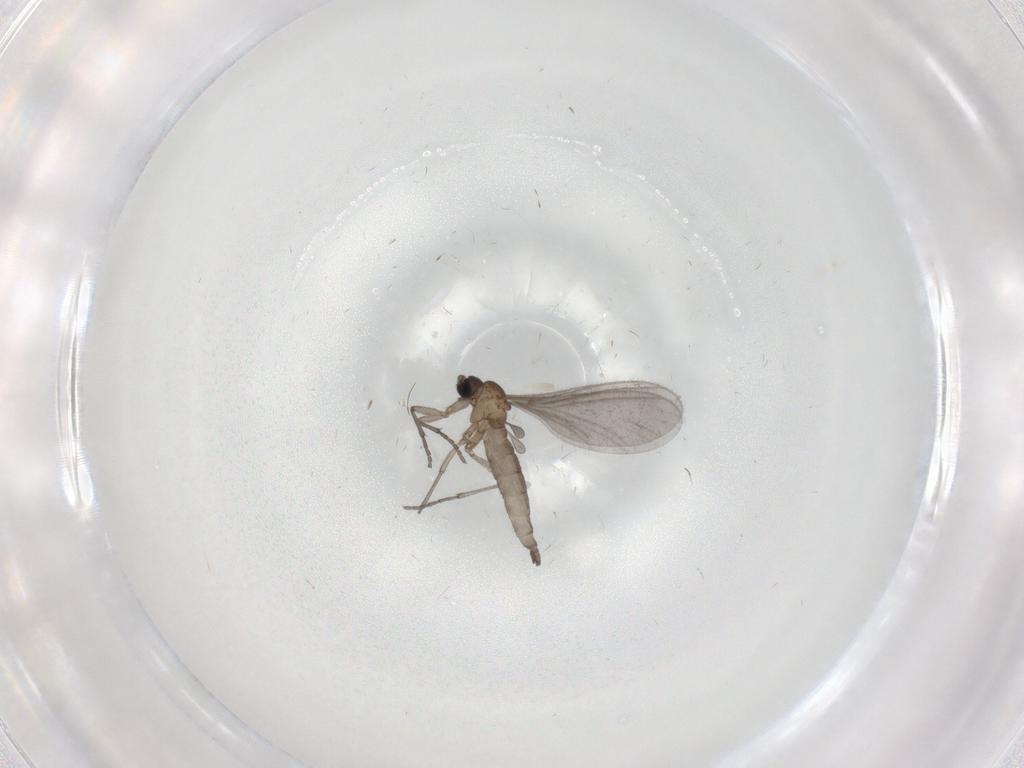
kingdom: Animalia
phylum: Arthropoda
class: Insecta
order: Diptera
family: Sciaridae
